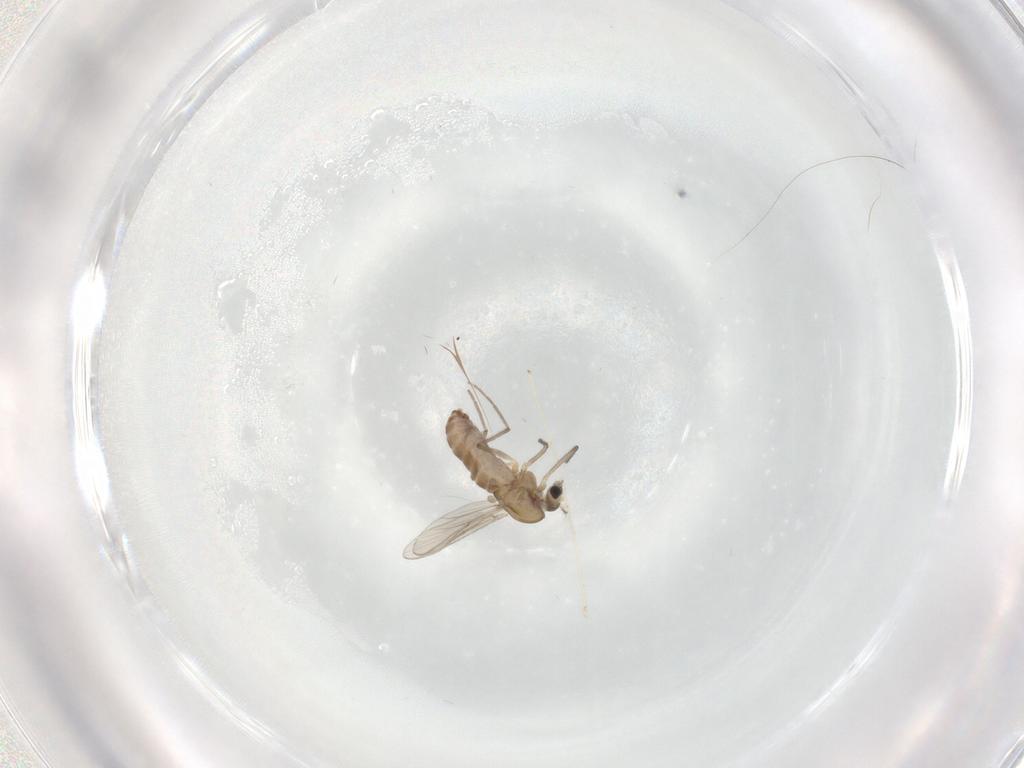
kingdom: Animalia
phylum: Arthropoda
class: Insecta
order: Diptera
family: Chironomidae
